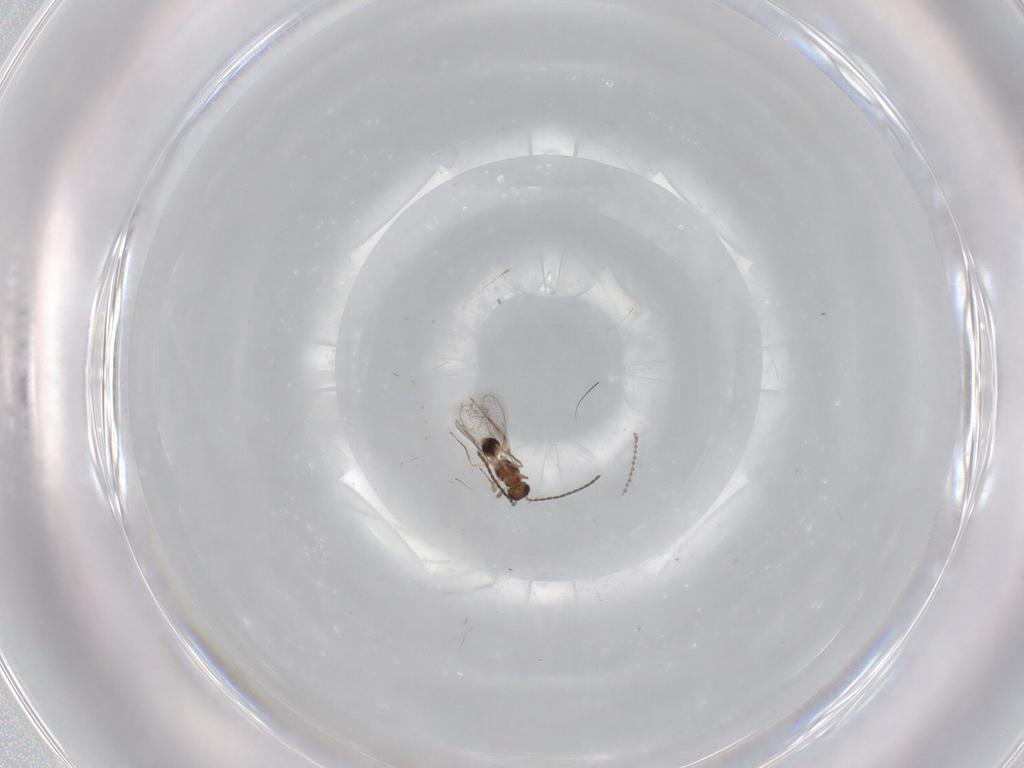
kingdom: Animalia
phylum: Arthropoda
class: Insecta
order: Hymenoptera
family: Mymaridae
